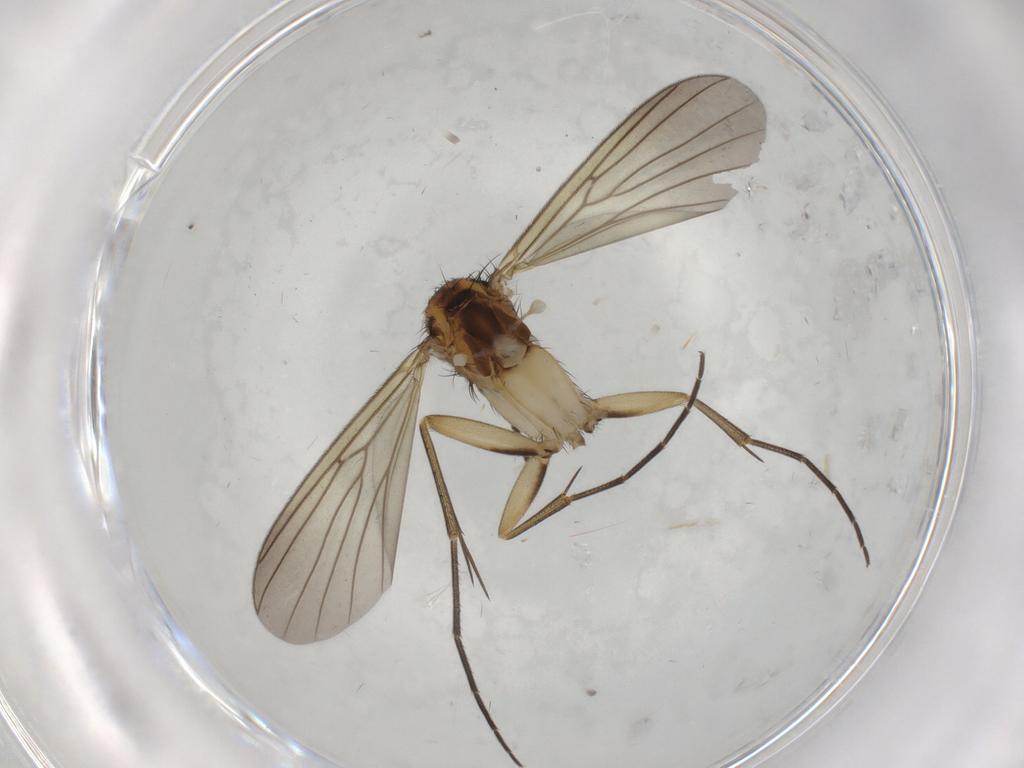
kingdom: Animalia
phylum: Arthropoda
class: Insecta
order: Diptera
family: Mycetophilidae
